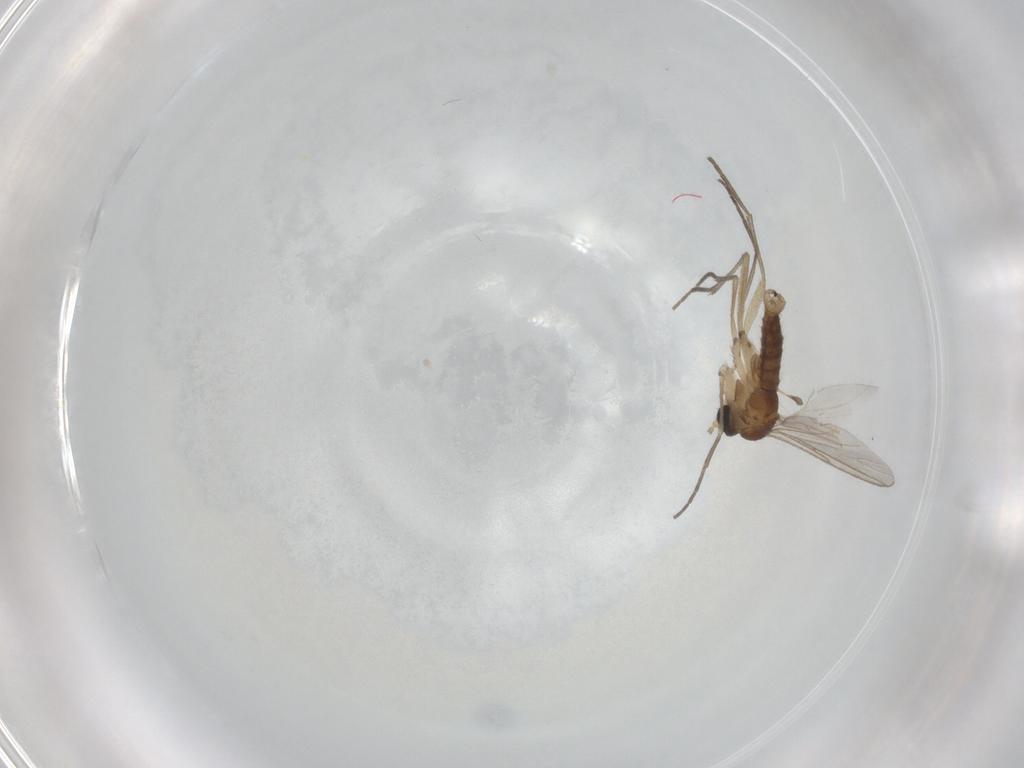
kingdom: Animalia
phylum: Arthropoda
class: Insecta
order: Diptera
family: Sciaridae
